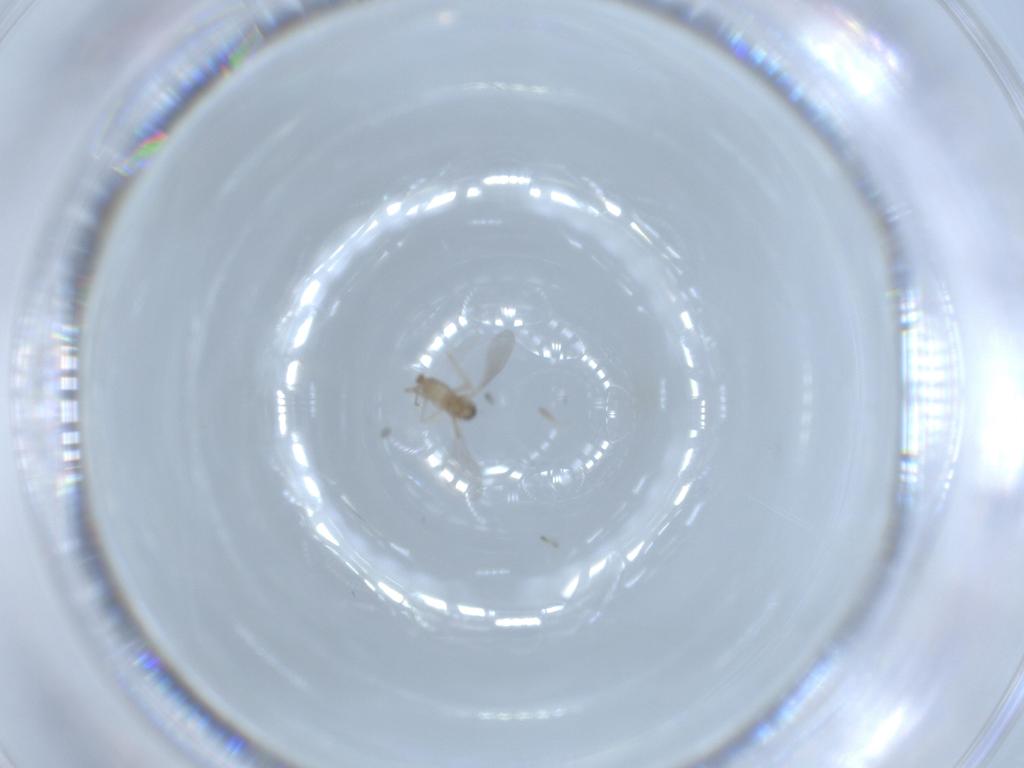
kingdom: Animalia
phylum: Arthropoda
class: Insecta
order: Diptera
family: Cecidomyiidae
